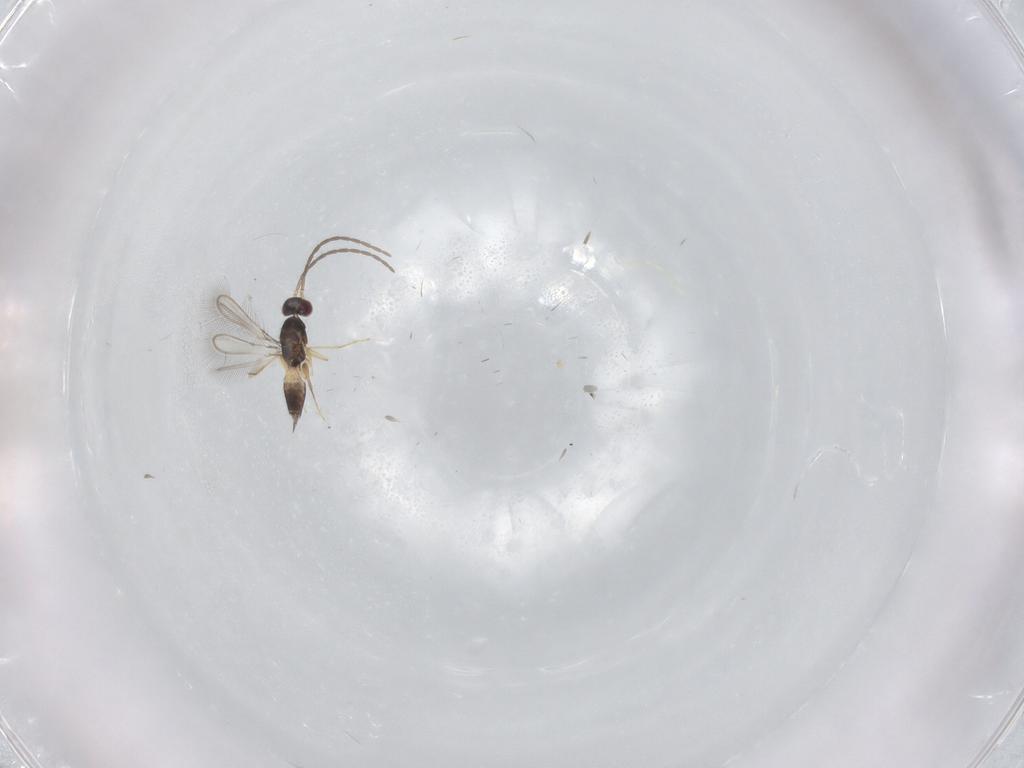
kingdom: Animalia
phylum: Arthropoda
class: Insecta
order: Hymenoptera
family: Mymaridae
